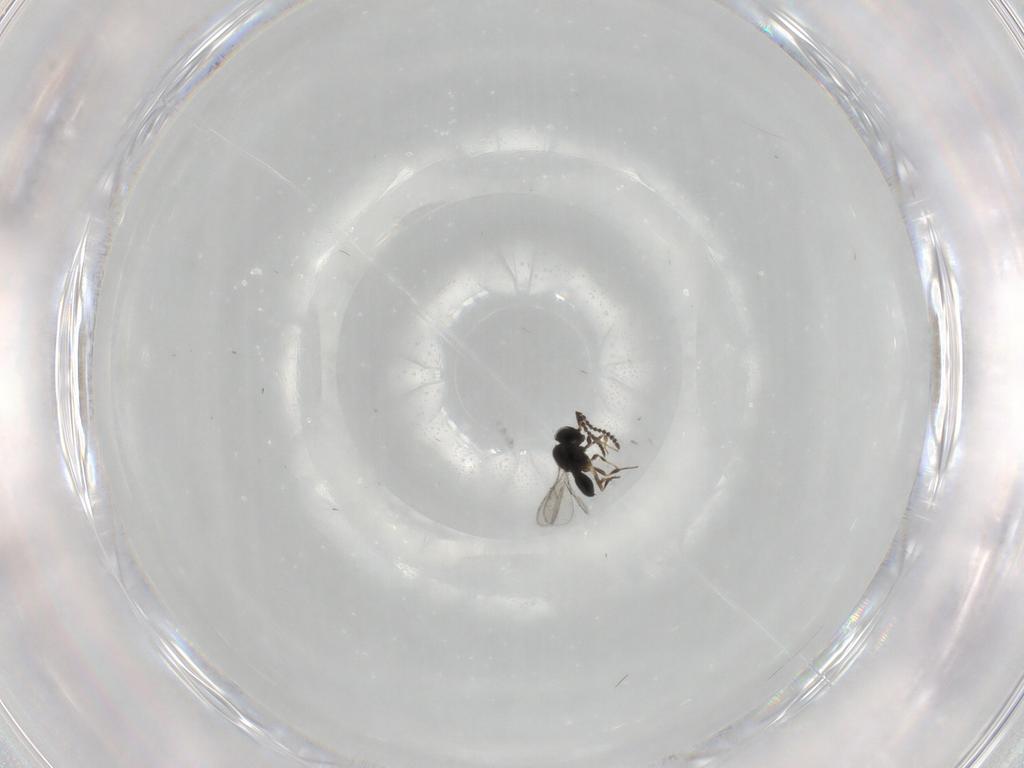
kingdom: Animalia
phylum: Arthropoda
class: Insecta
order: Hymenoptera
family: Scelionidae
